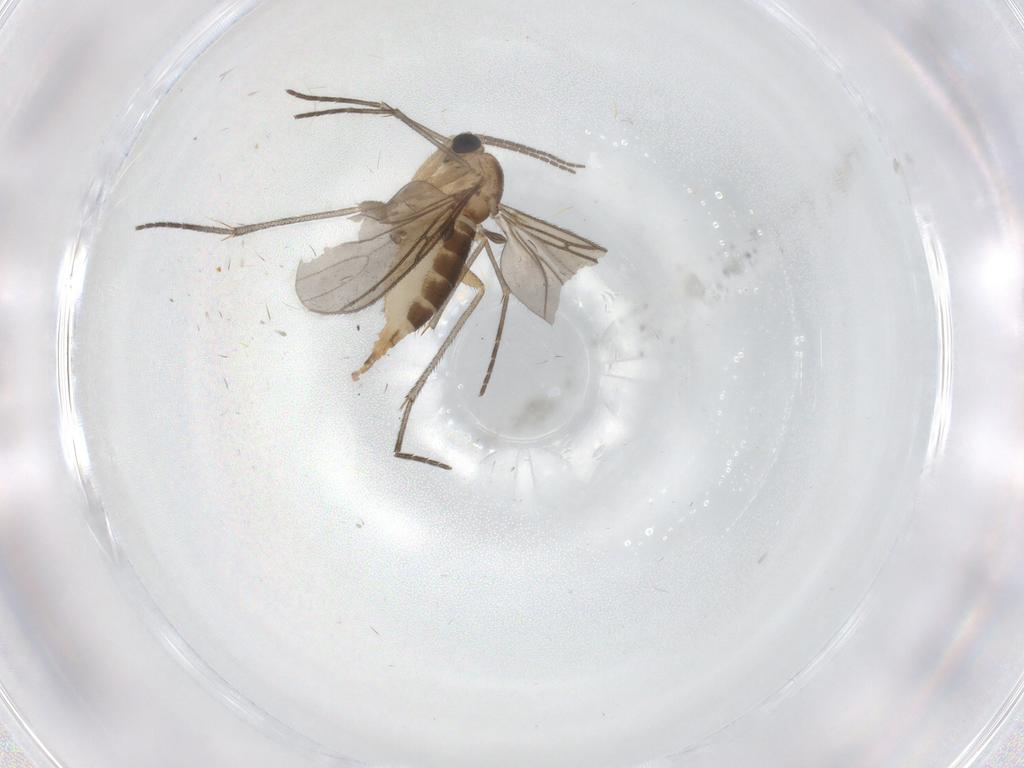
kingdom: Animalia
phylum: Arthropoda
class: Insecta
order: Diptera
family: Sciaridae
